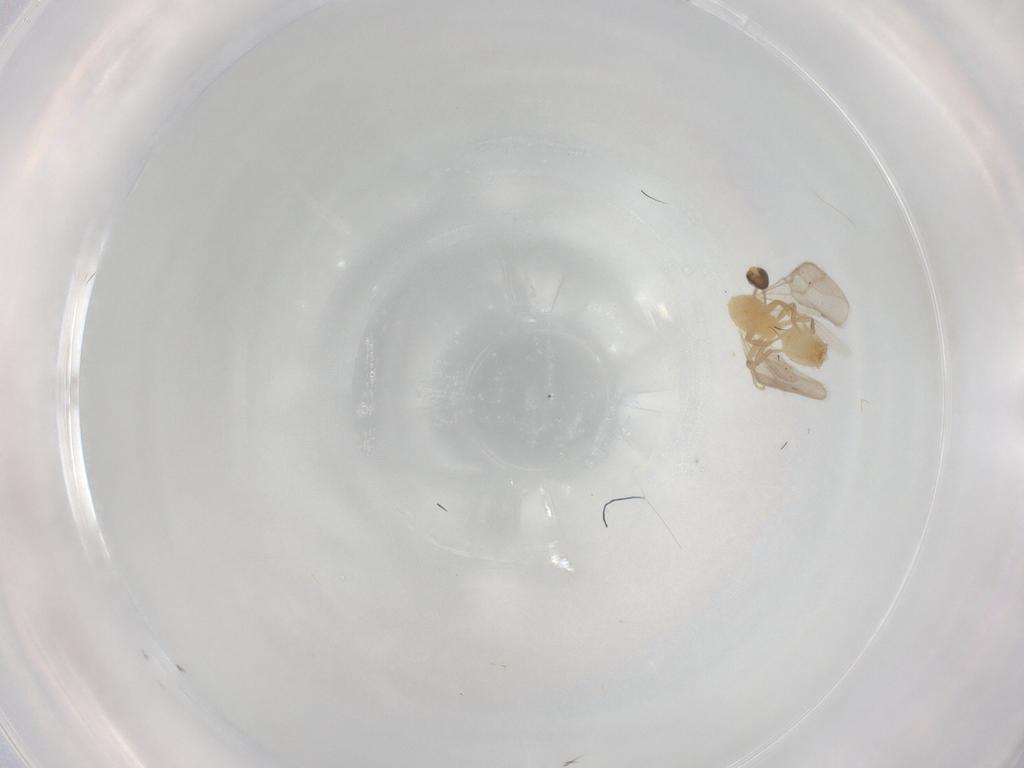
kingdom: Animalia
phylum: Arthropoda
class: Insecta
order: Hymenoptera
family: Formicidae
